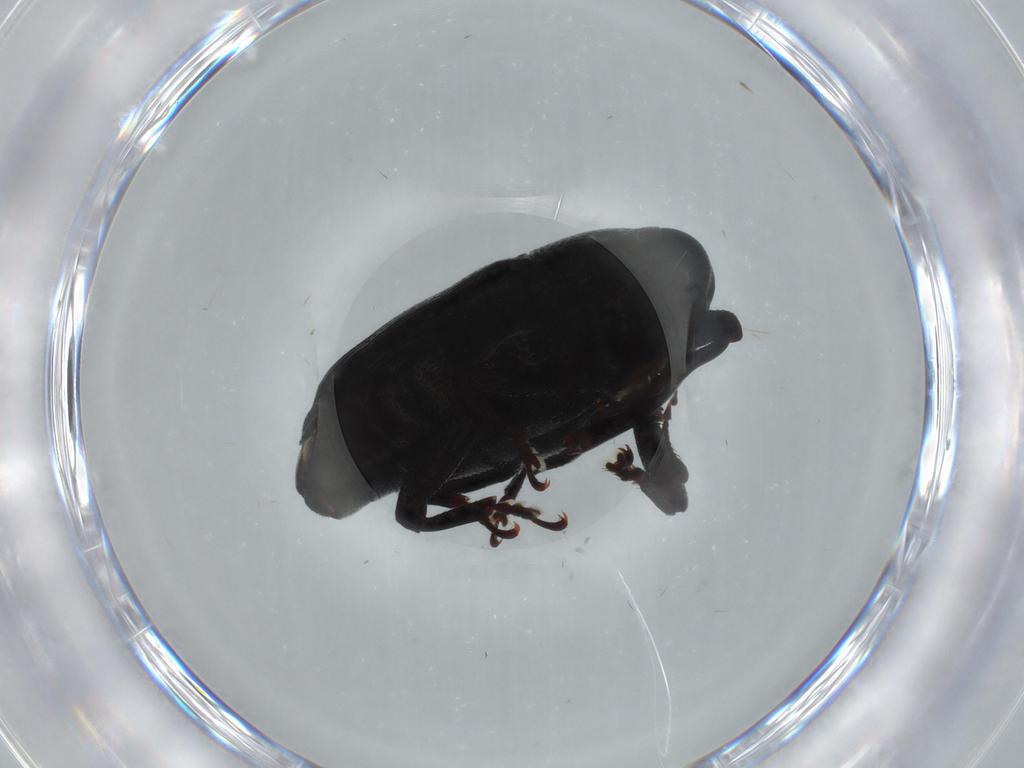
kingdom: Animalia
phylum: Arthropoda
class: Insecta
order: Coleoptera
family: Curculionidae
